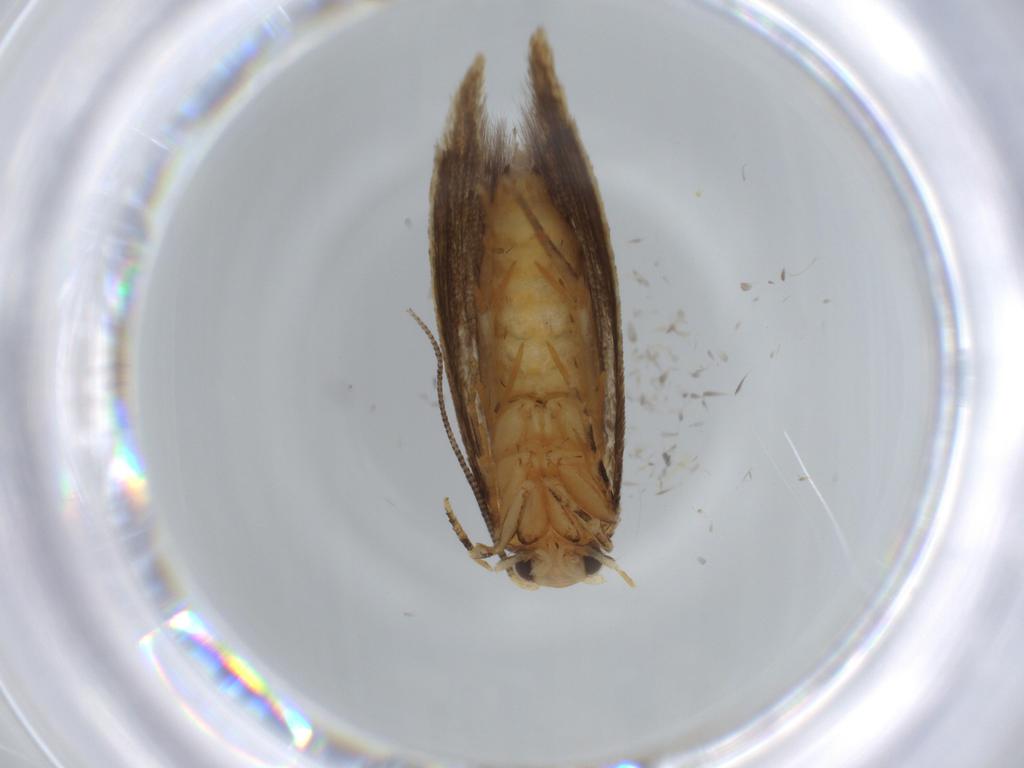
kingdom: Animalia
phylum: Arthropoda
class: Insecta
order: Lepidoptera
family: Tineidae
